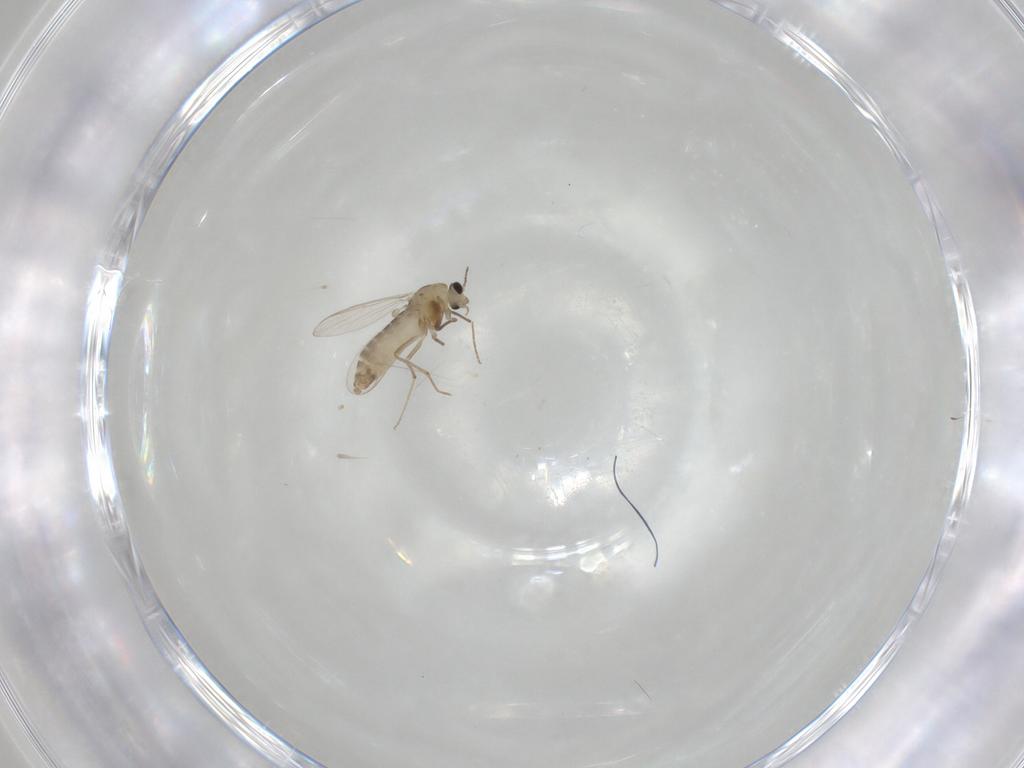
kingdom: Animalia
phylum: Arthropoda
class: Insecta
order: Diptera
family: Chironomidae
